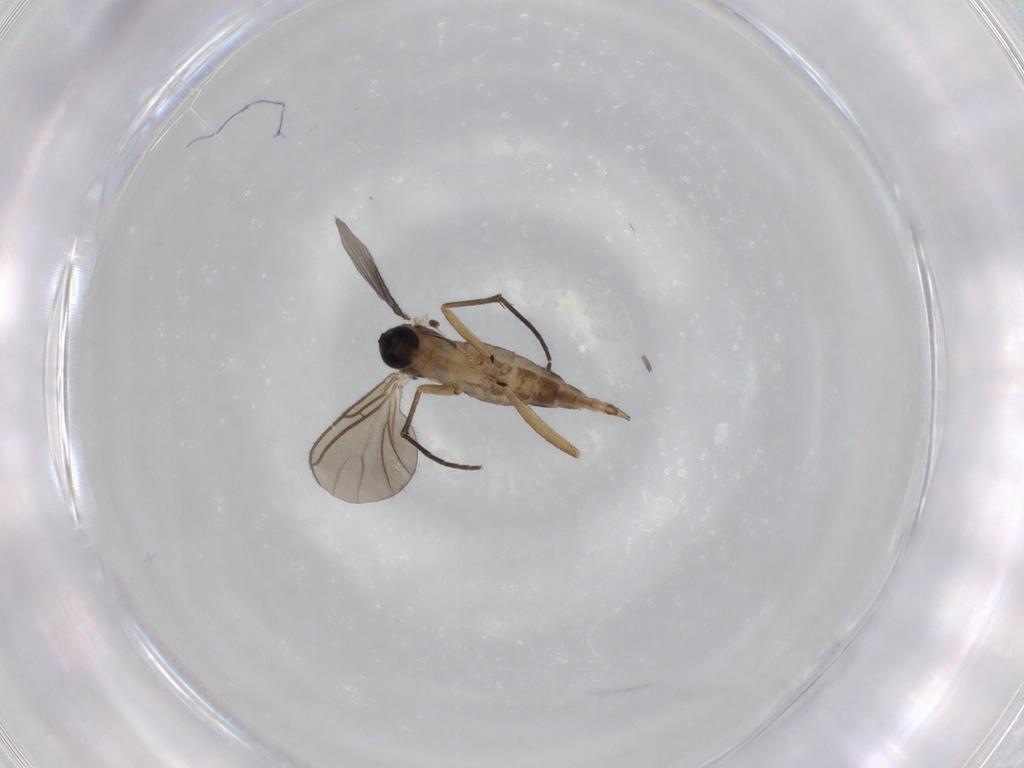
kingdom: Animalia
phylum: Arthropoda
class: Insecta
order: Diptera
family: Sciaridae
